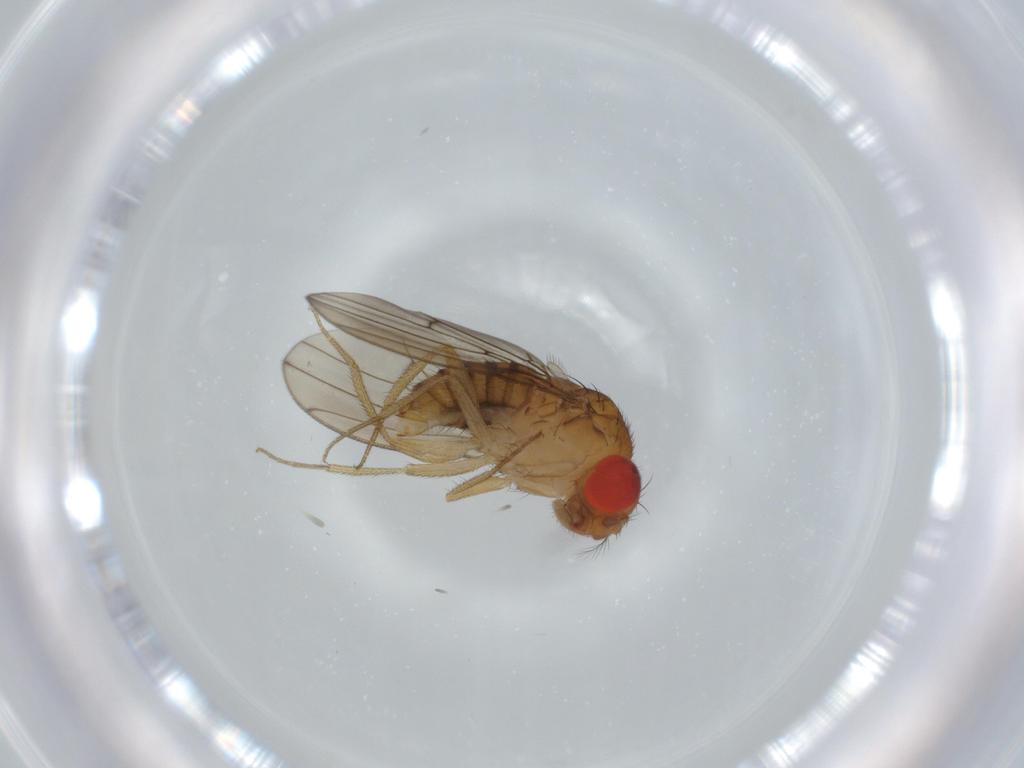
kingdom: Animalia
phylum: Arthropoda
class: Insecta
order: Diptera
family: Drosophilidae
